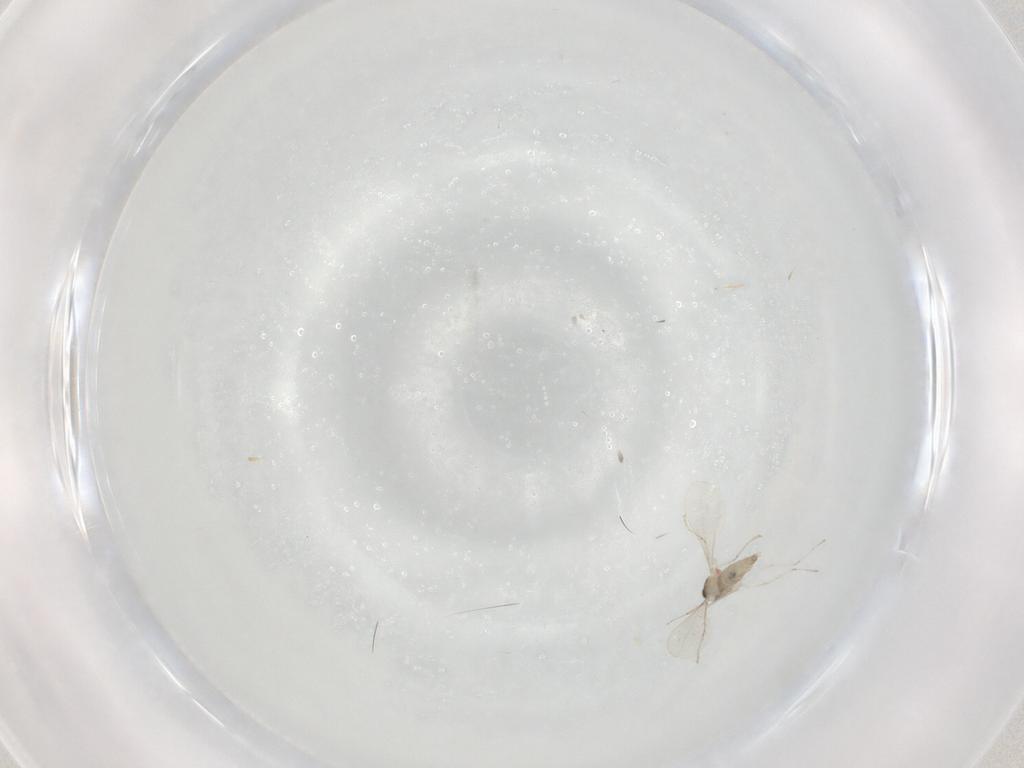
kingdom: Animalia
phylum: Arthropoda
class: Insecta
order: Diptera
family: Cecidomyiidae
